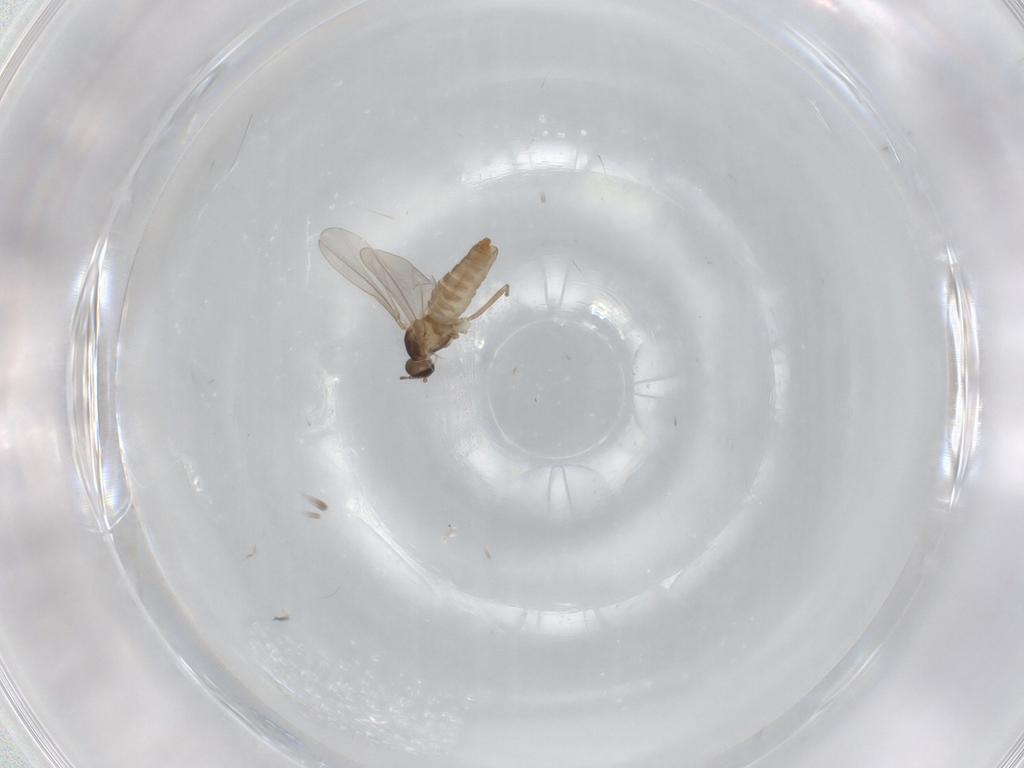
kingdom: Animalia
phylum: Arthropoda
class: Insecta
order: Diptera
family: Cecidomyiidae
